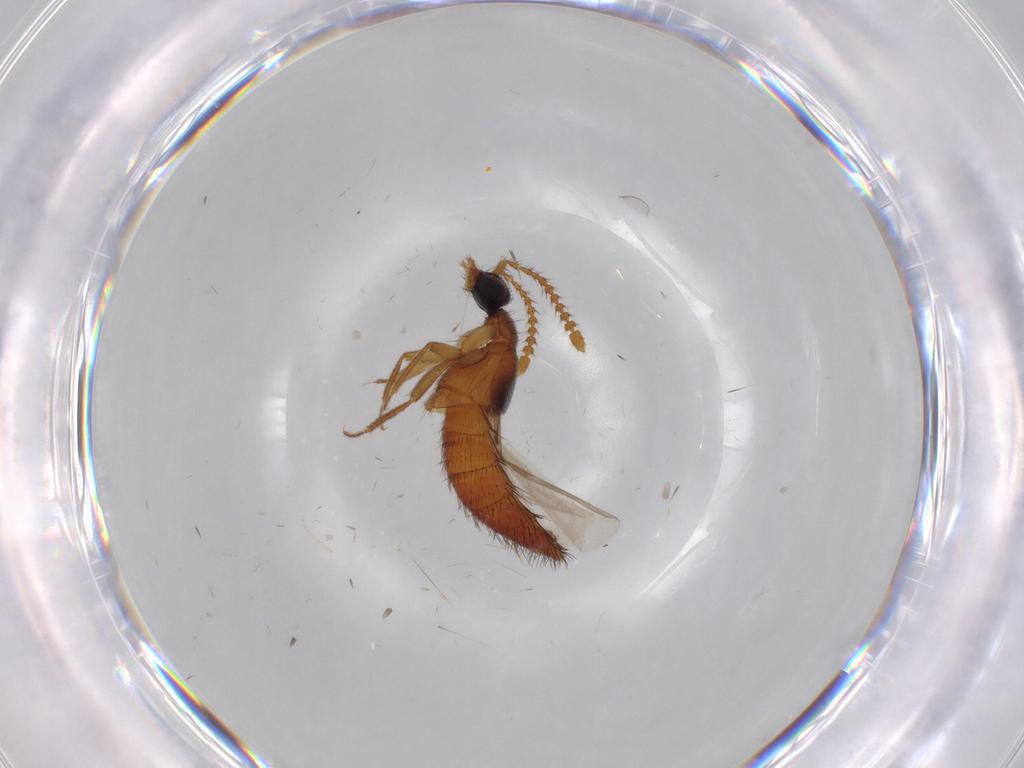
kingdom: Animalia
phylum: Arthropoda
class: Insecta
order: Coleoptera
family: Staphylinidae
